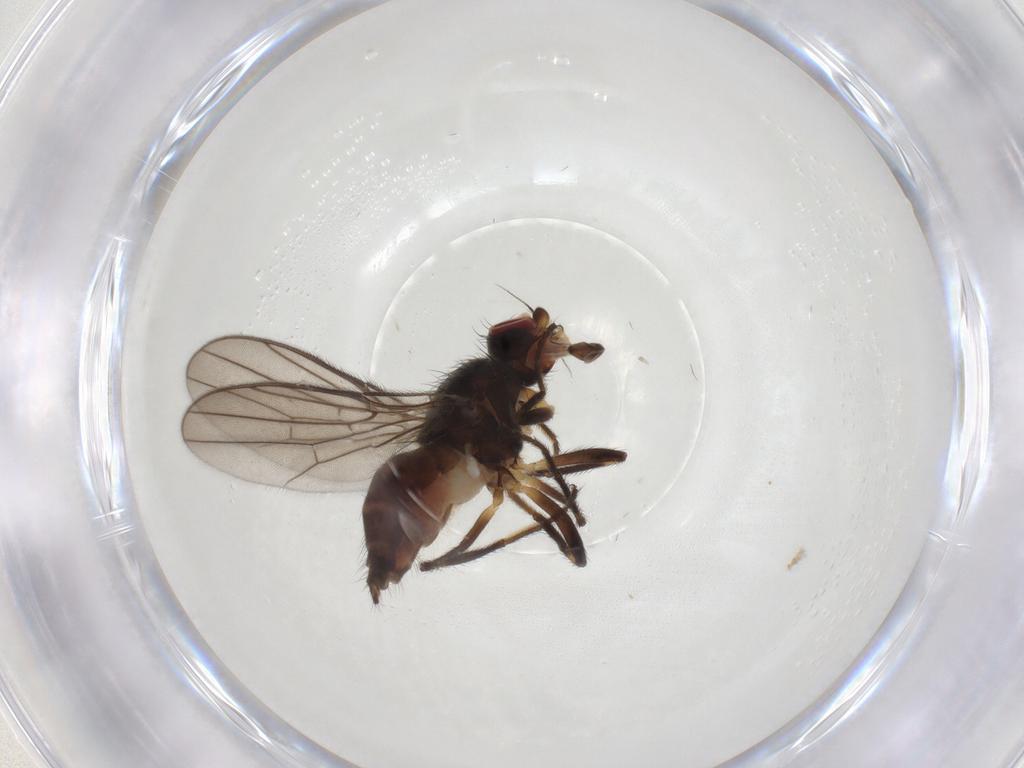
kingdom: Animalia
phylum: Arthropoda
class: Insecta
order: Diptera
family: Chloropidae
